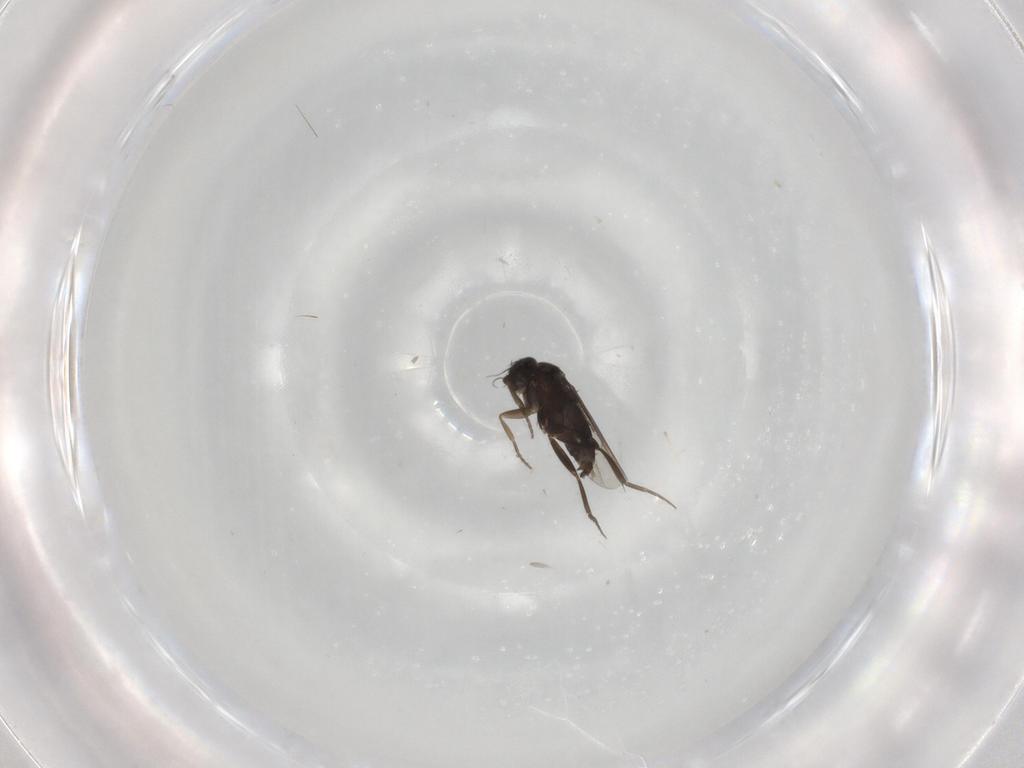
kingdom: Animalia
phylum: Arthropoda
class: Insecta
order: Diptera
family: Phoridae
